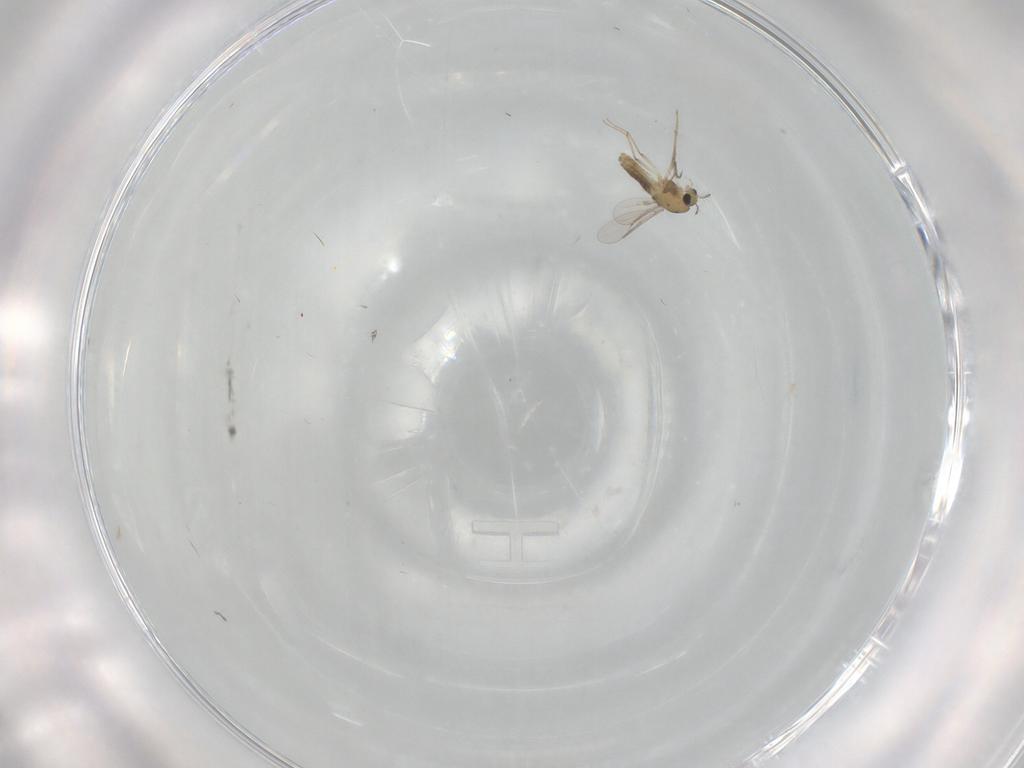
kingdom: Animalia
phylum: Arthropoda
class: Insecta
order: Diptera
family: Chironomidae
